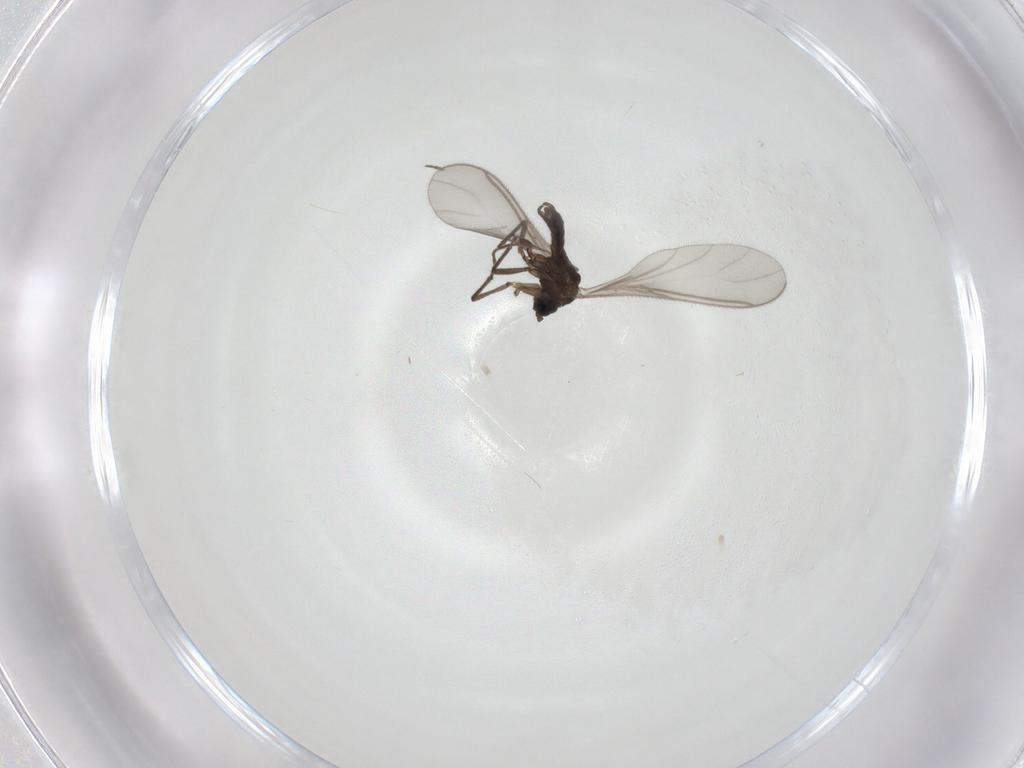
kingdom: Animalia
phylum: Arthropoda
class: Insecta
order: Diptera
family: Sciaridae
